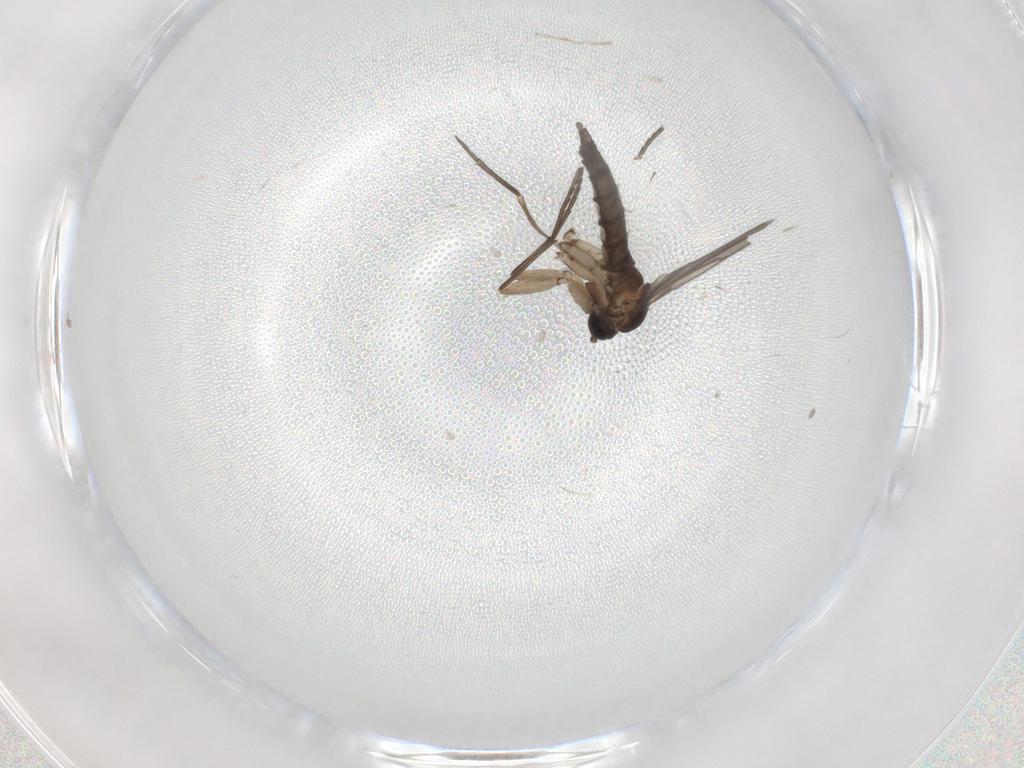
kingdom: Animalia
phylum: Arthropoda
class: Insecta
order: Diptera
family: Sciaridae
